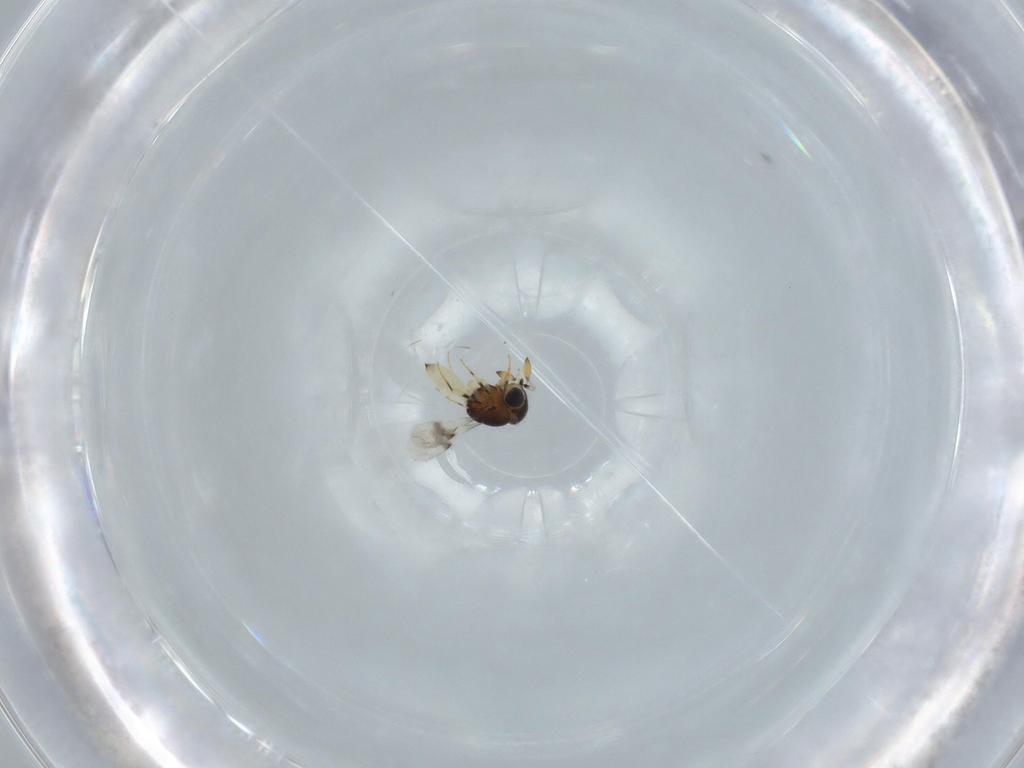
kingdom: Animalia
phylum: Arthropoda
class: Insecta
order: Hymenoptera
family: Scelionidae
